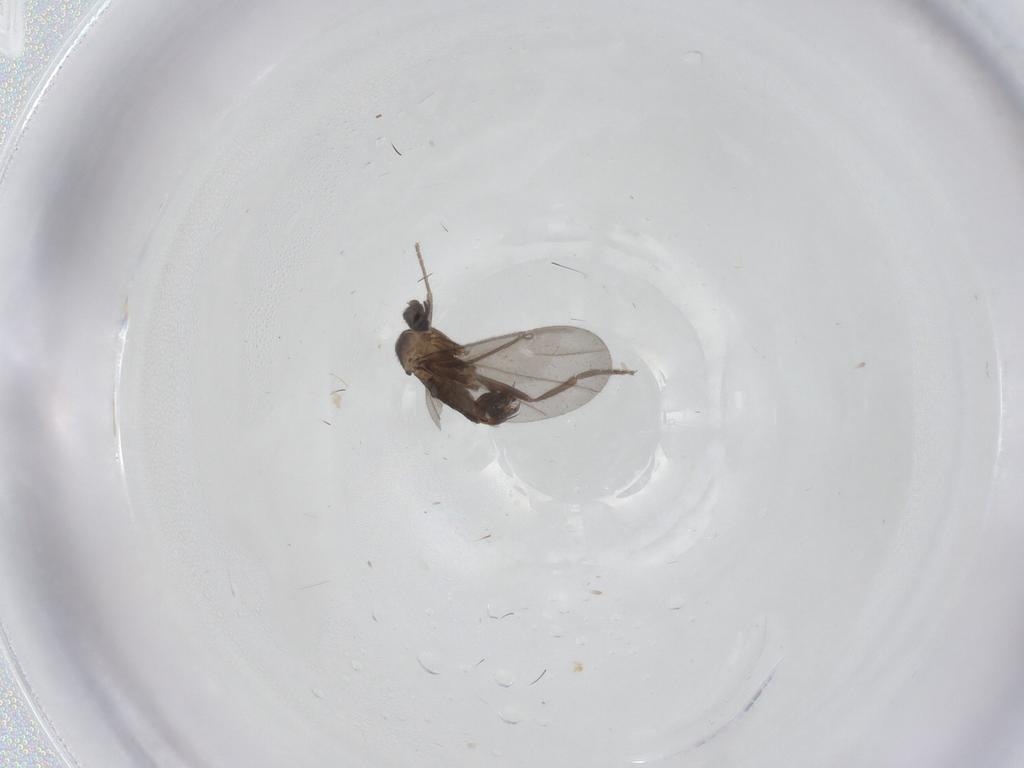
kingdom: Animalia
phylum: Arthropoda
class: Insecta
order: Diptera
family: Phoridae
